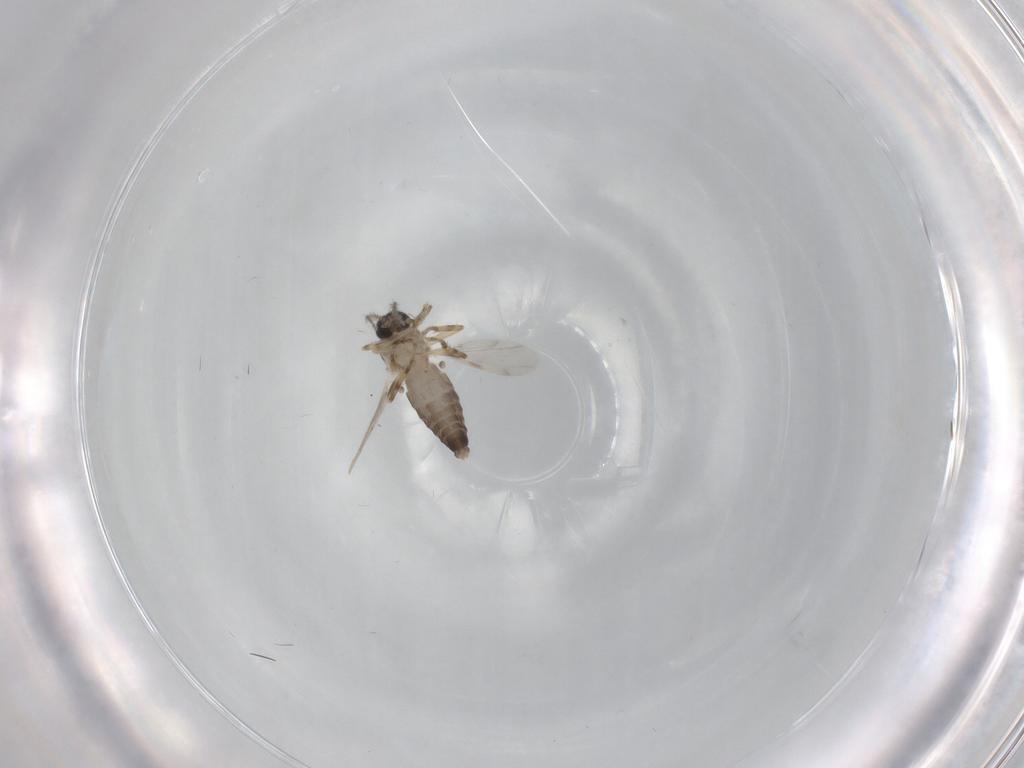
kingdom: Animalia
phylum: Arthropoda
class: Insecta
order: Diptera
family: Ceratopogonidae
